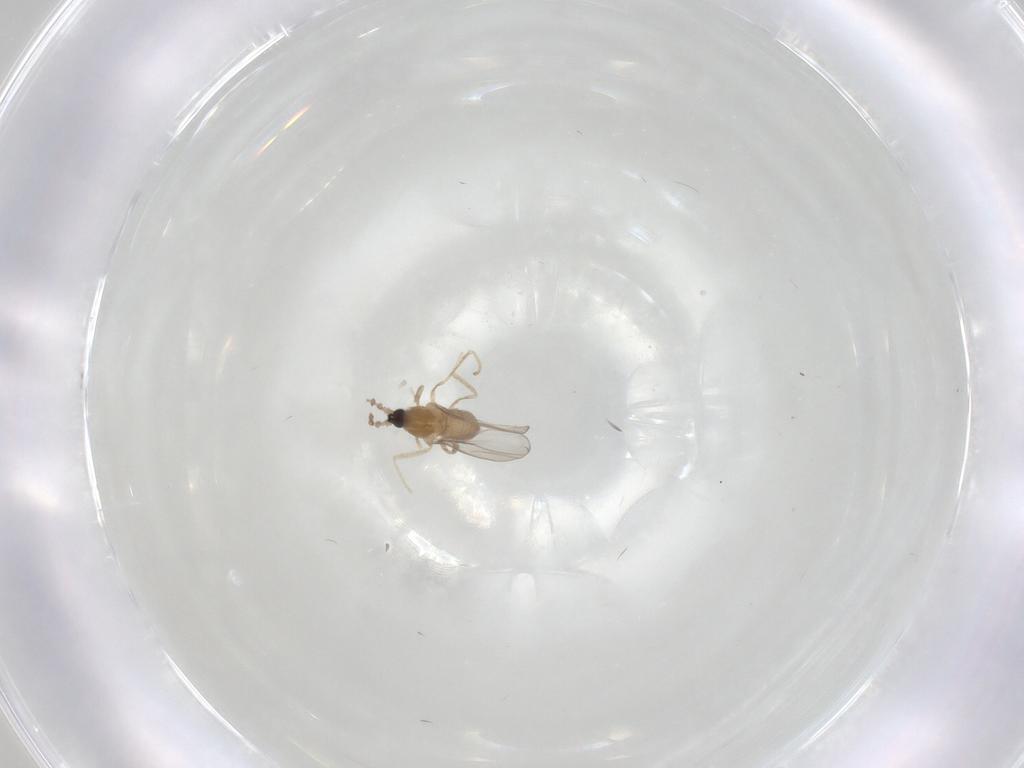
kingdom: Animalia
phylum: Arthropoda
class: Insecta
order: Diptera
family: Cecidomyiidae
